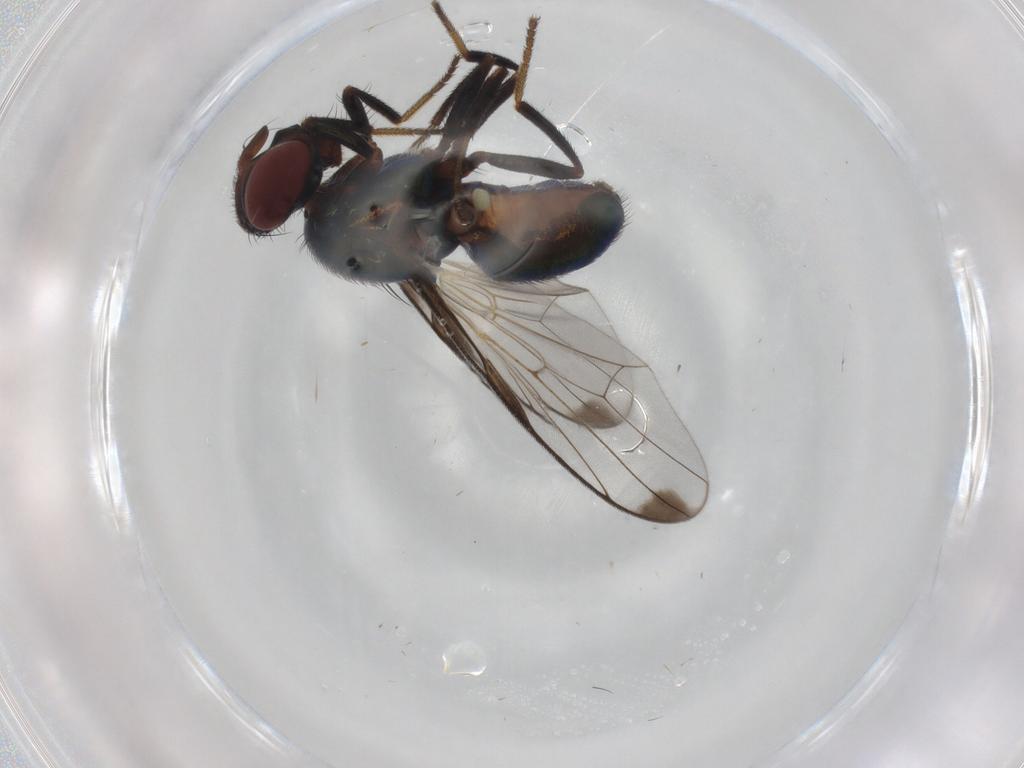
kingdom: Animalia
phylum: Arthropoda
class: Insecta
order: Diptera
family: Platystomatidae
